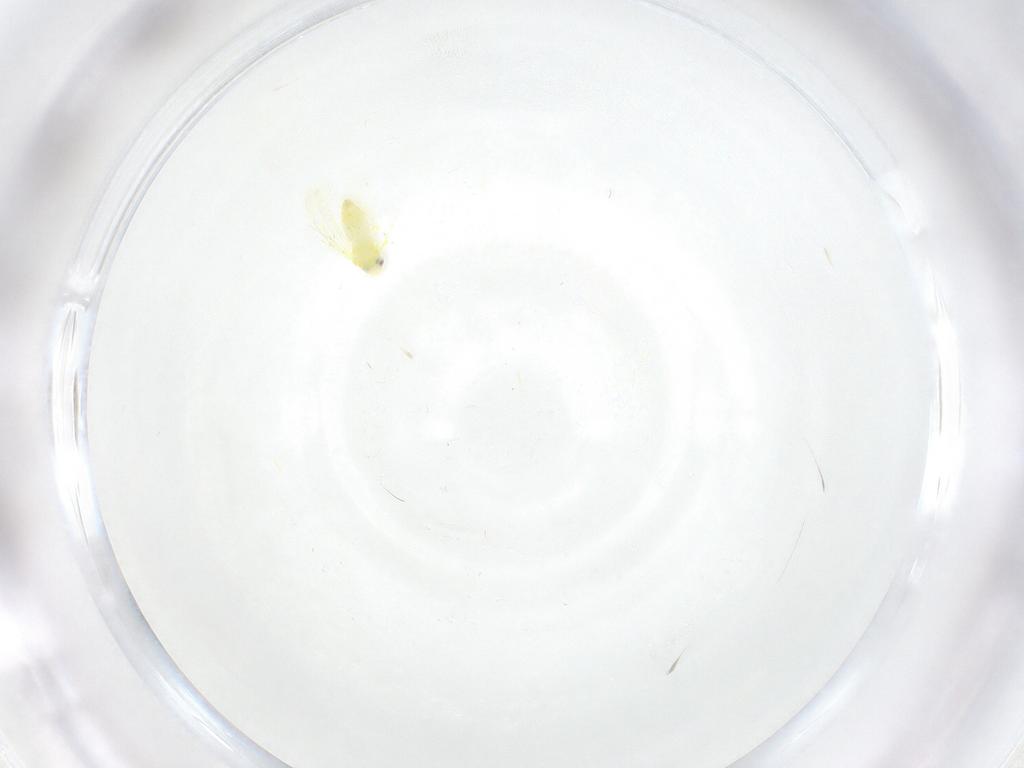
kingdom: Animalia
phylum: Arthropoda
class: Insecta
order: Hemiptera
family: Aleyrodidae
